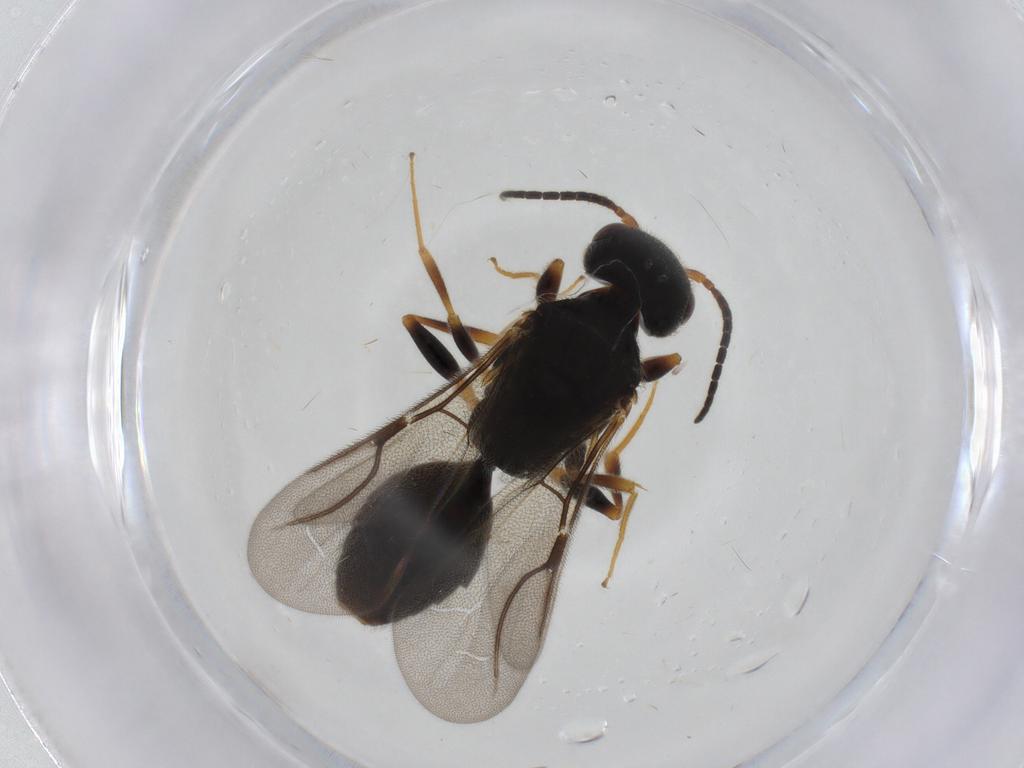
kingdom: Animalia
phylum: Arthropoda
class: Insecta
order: Hymenoptera
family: Bethylidae
